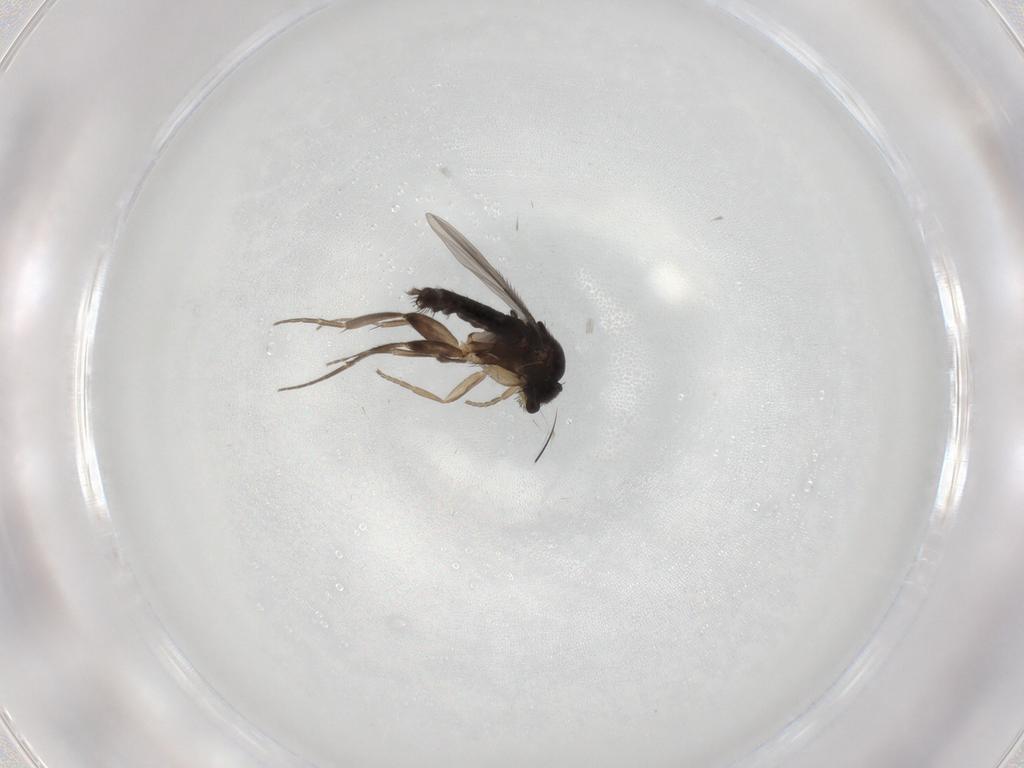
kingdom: Animalia
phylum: Arthropoda
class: Insecta
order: Diptera
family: Phoridae
